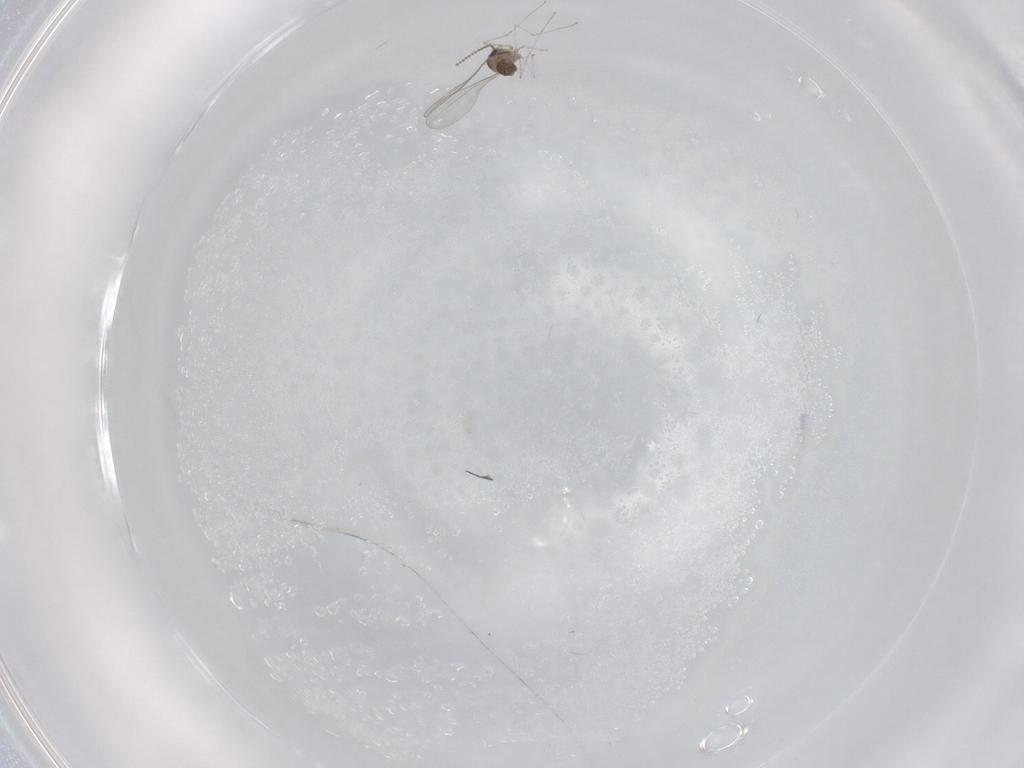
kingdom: Animalia
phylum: Arthropoda
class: Insecta
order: Diptera
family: Cecidomyiidae
